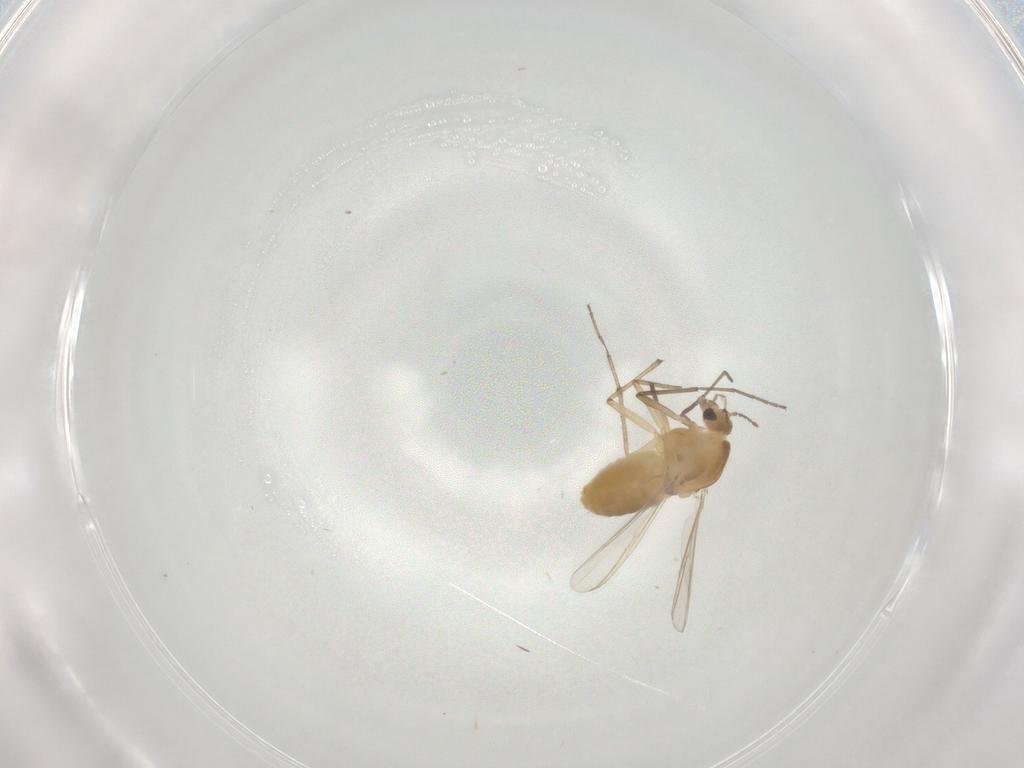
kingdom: Animalia
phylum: Arthropoda
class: Insecta
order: Diptera
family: Chironomidae
